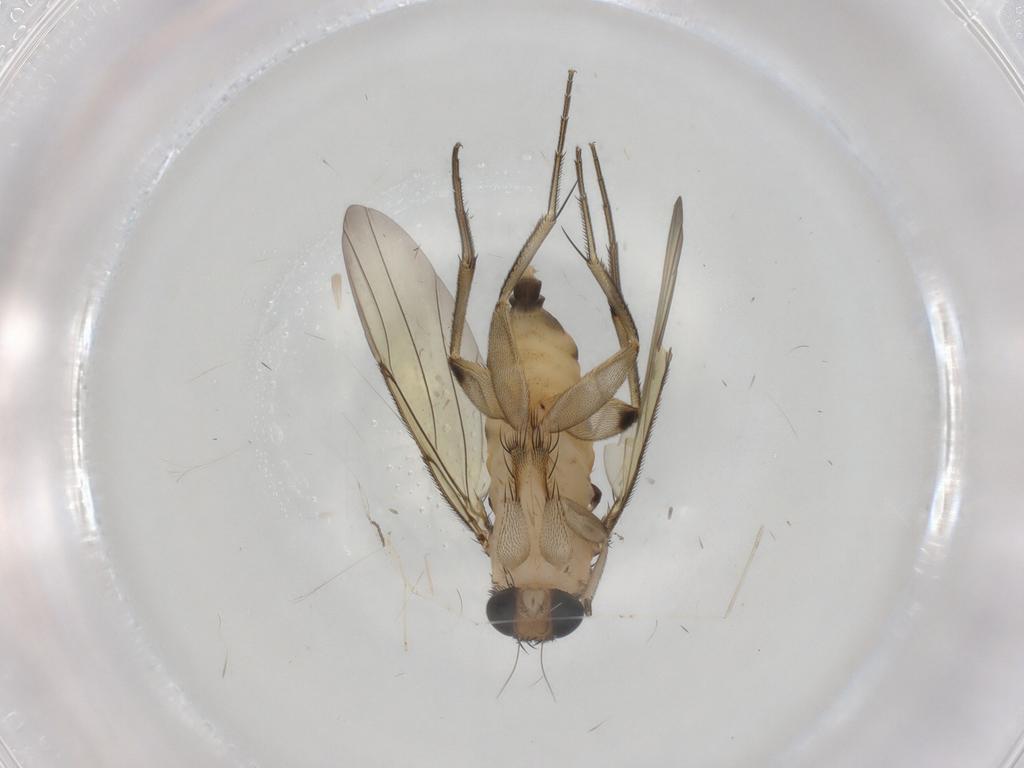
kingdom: Animalia
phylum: Arthropoda
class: Insecta
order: Diptera
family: Phoridae
